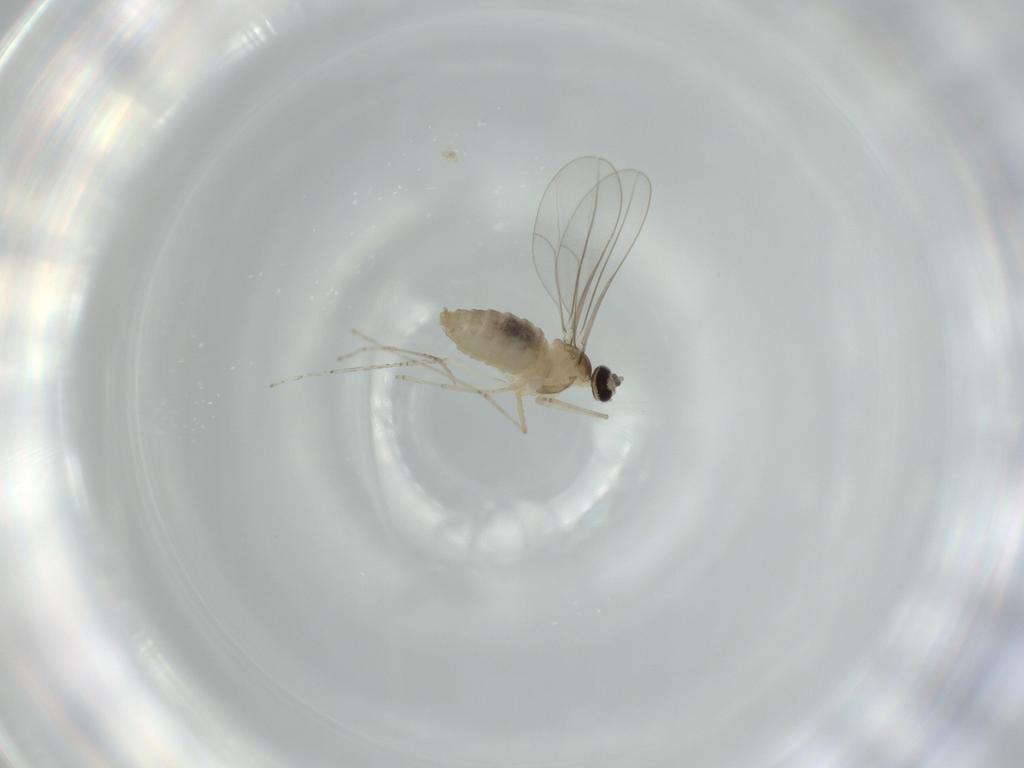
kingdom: Animalia
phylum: Arthropoda
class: Insecta
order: Diptera
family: Cecidomyiidae
